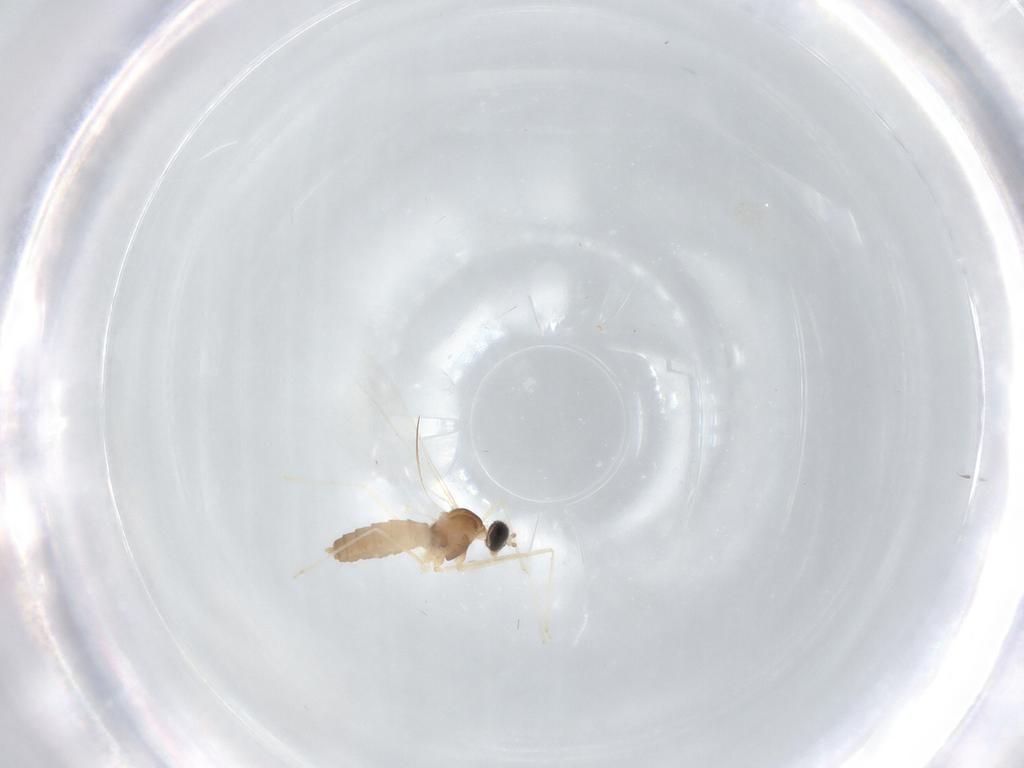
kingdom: Animalia
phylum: Arthropoda
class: Insecta
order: Diptera
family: Cecidomyiidae
